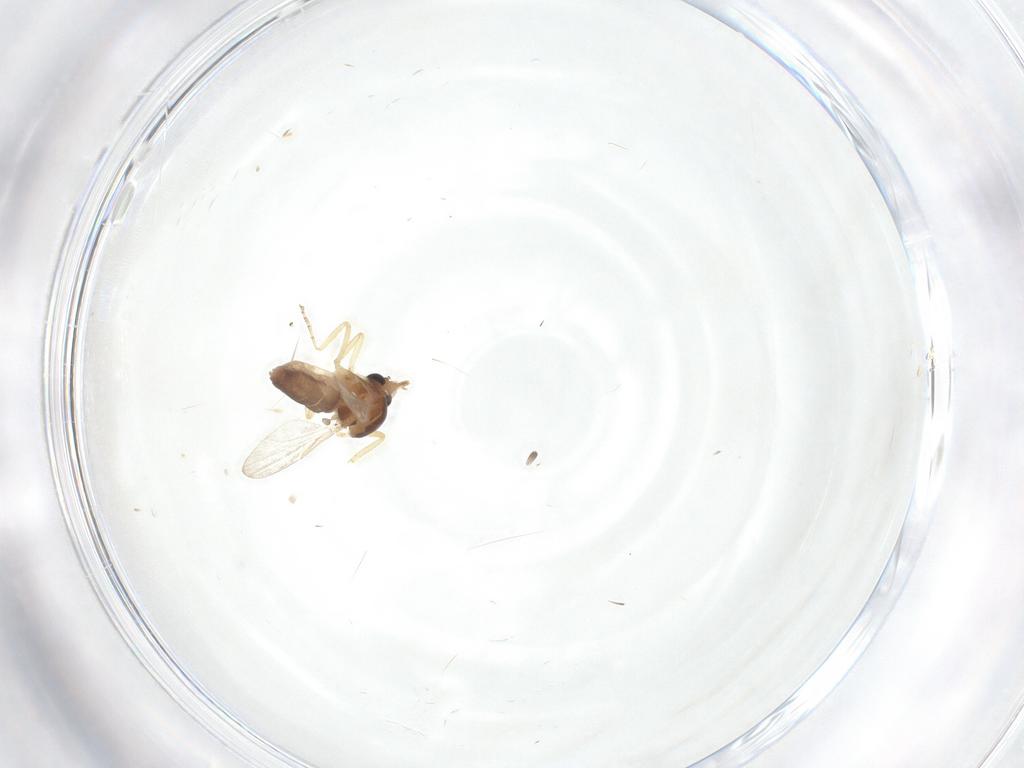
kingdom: Animalia
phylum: Arthropoda
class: Insecta
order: Diptera
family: Ceratopogonidae
